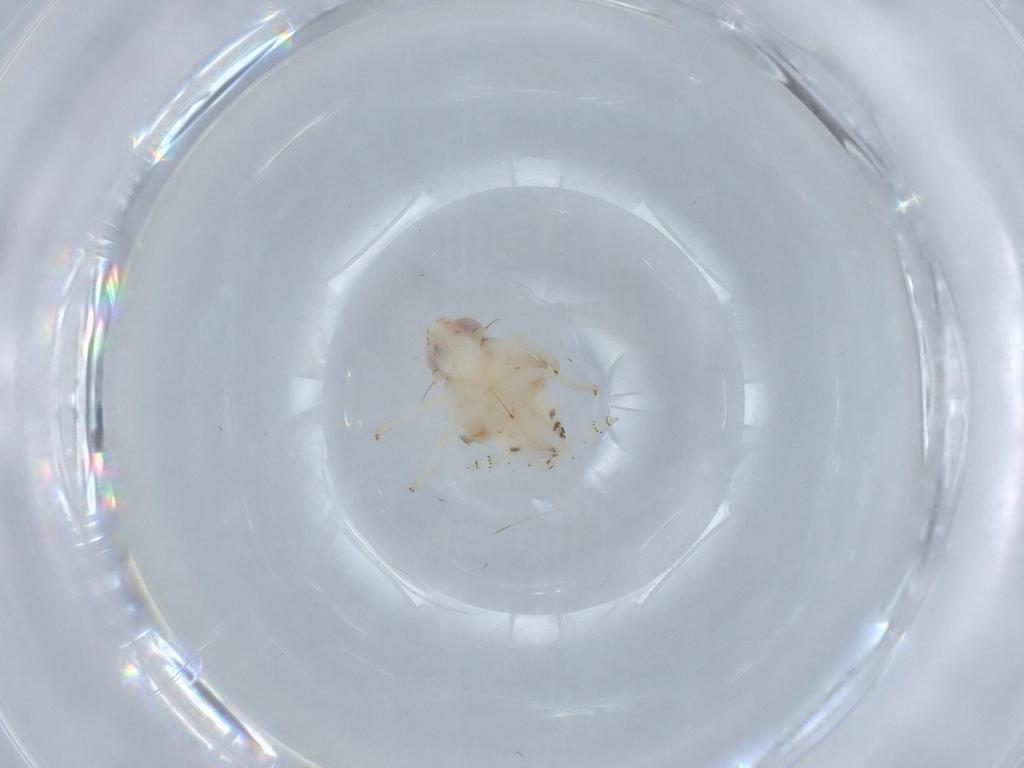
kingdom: Animalia
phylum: Arthropoda
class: Insecta
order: Hemiptera
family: Nogodinidae
